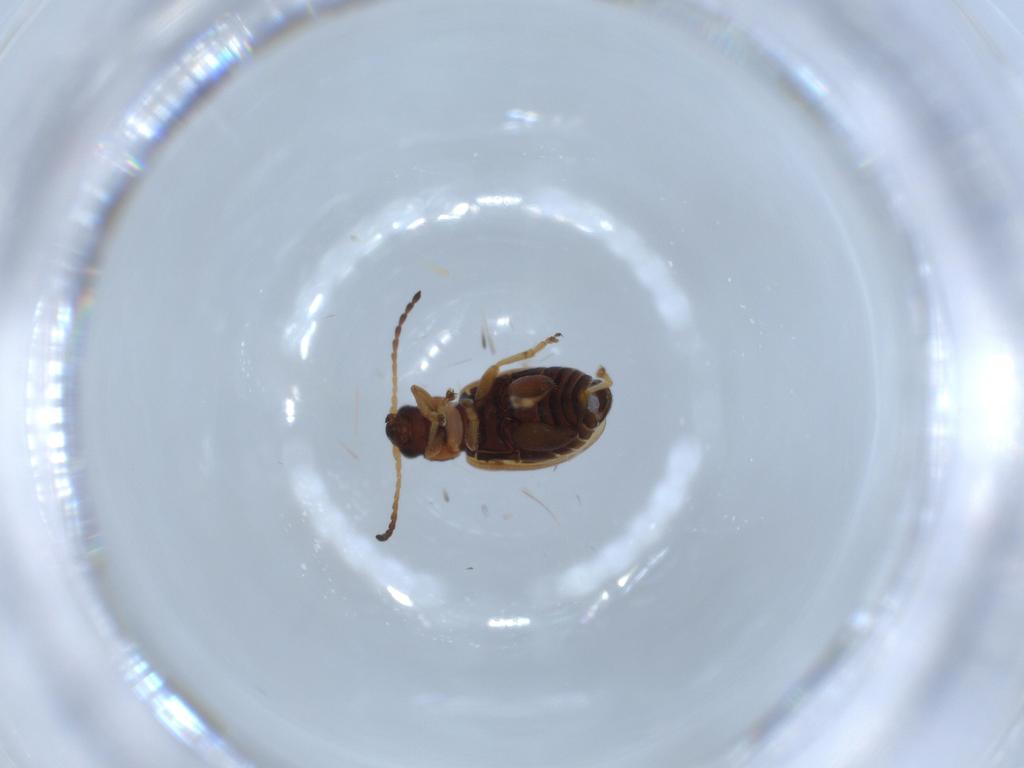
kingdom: Animalia
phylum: Arthropoda
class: Insecta
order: Coleoptera
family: Chrysomelidae
